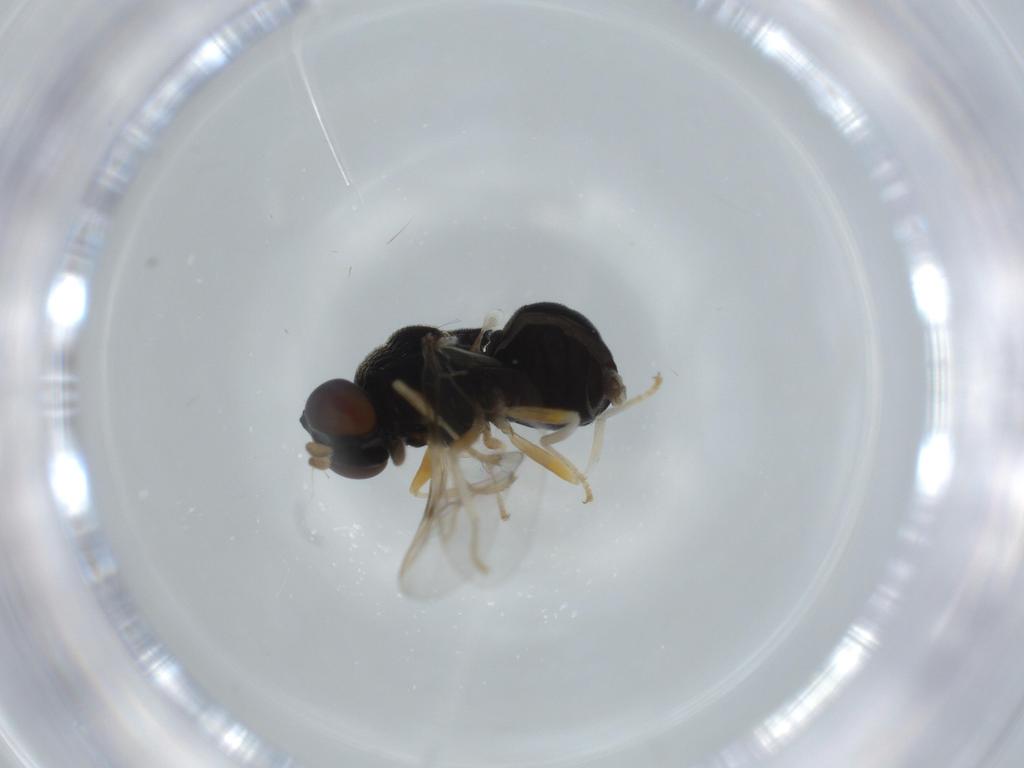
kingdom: Animalia
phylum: Arthropoda
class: Insecta
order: Diptera
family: Stratiomyidae
